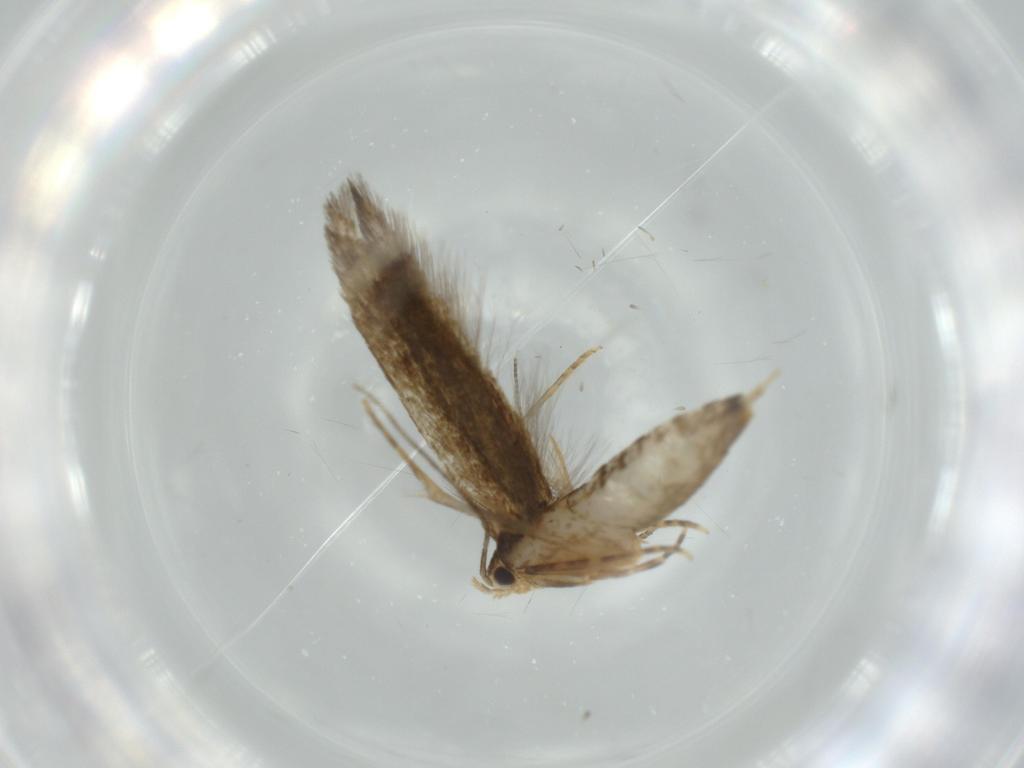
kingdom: Animalia
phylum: Arthropoda
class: Insecta
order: Lepidoptera
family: Tineidae
